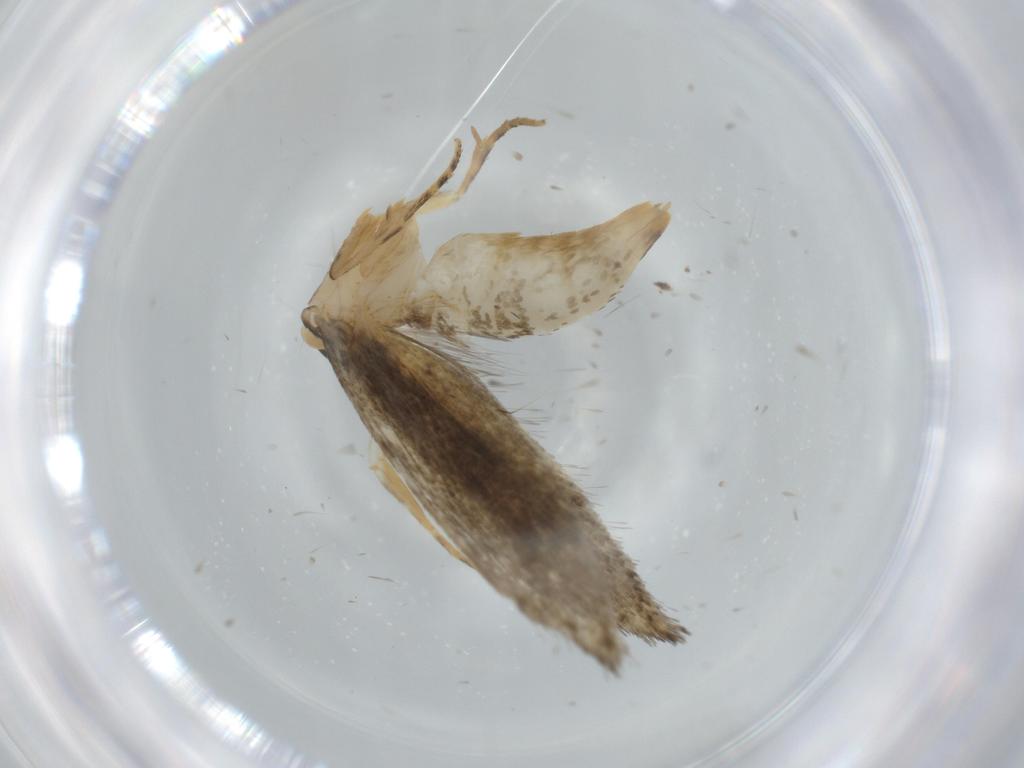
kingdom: Animalia
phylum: Arthropoda
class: Insecta
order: Lepidoptera
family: Tineidae
